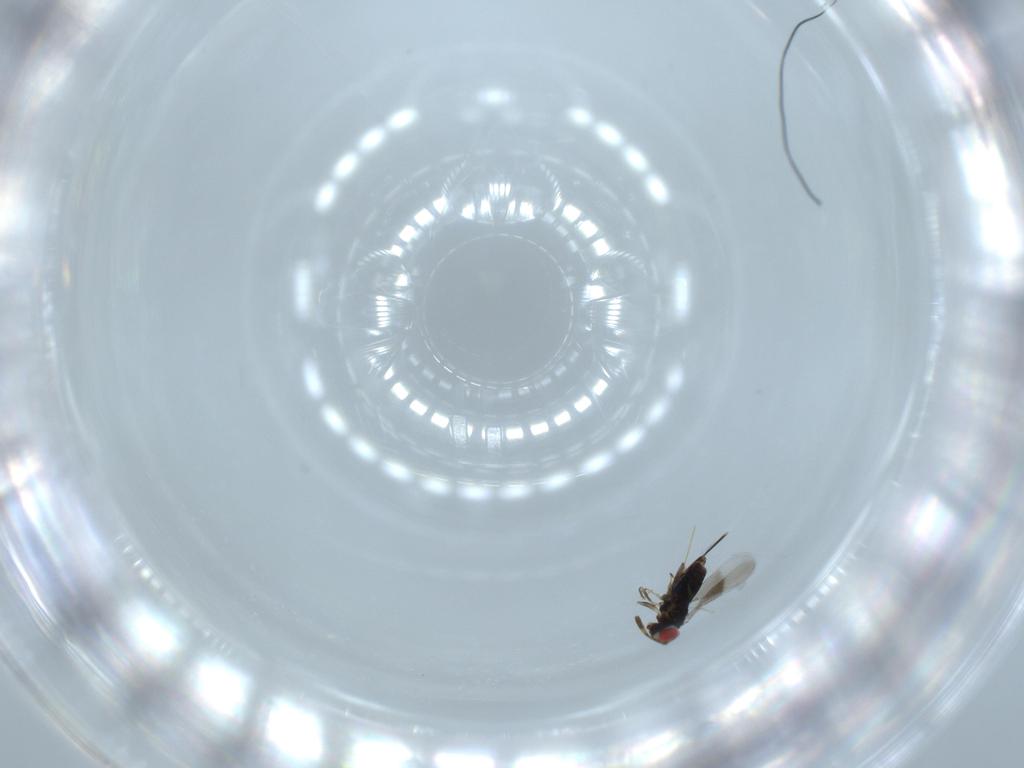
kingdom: Animalia
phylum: Arthropoda
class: Insecta
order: Hymenoptera
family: Azotidae
